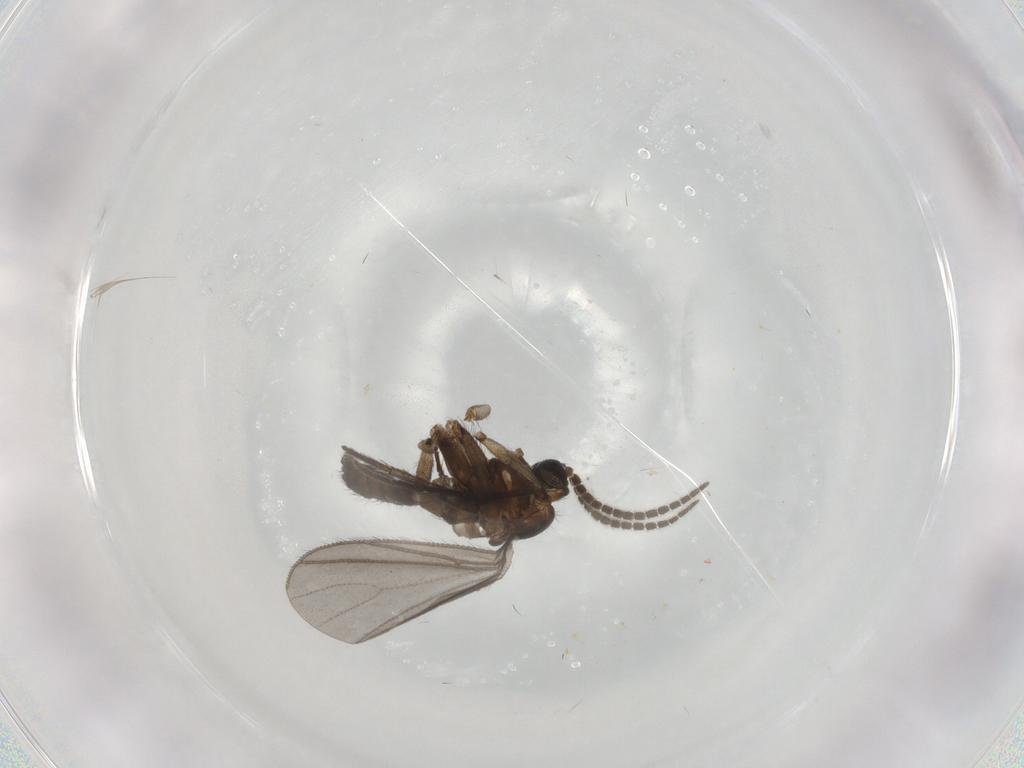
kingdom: Animalia
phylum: Arthropoda
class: Insecta
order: Diptera
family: Sciaridae
